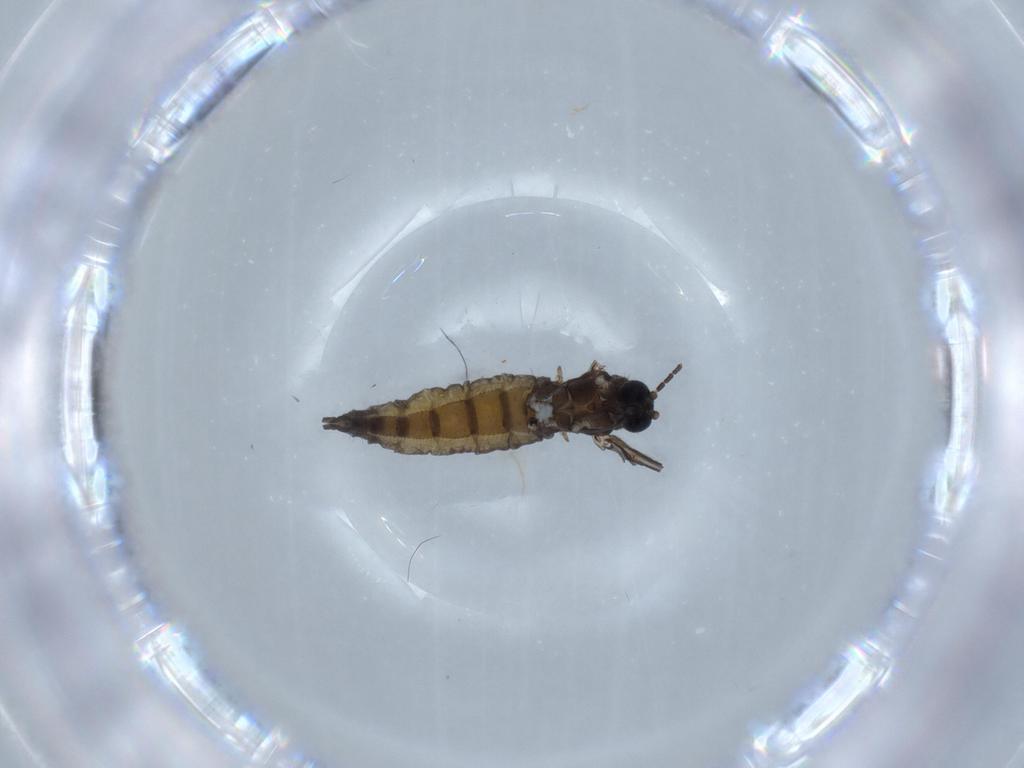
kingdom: Animalia
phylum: Arthropoda
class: Insecta
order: Diptera
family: Sciaridae
